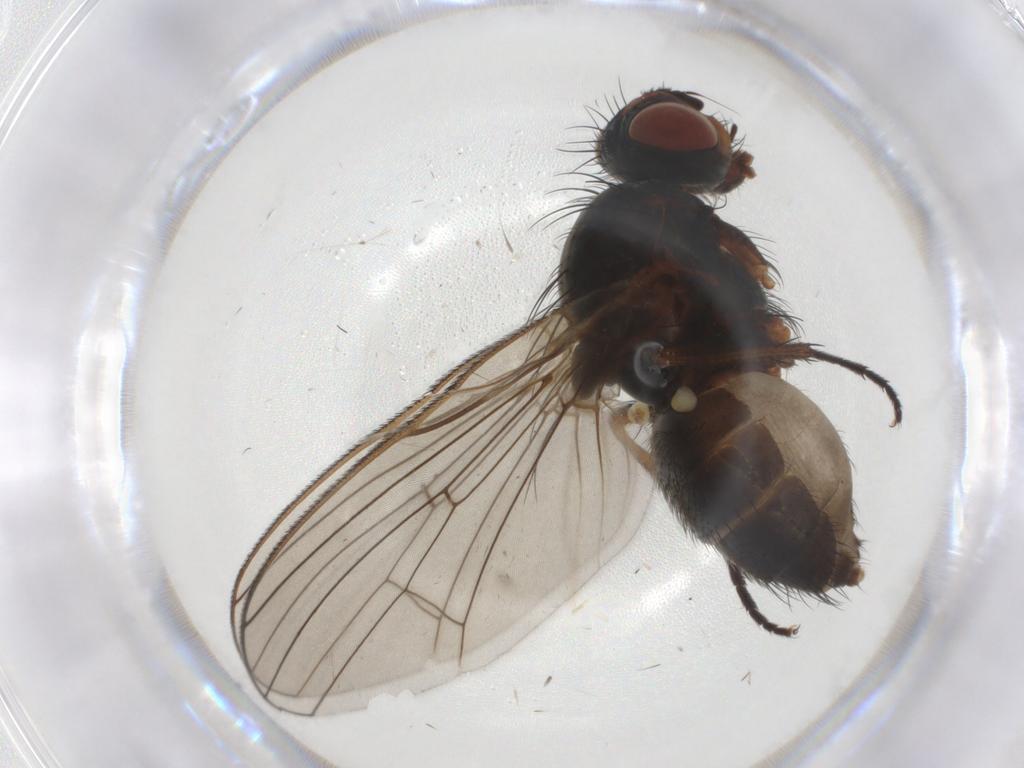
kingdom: Animalia
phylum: Arthropoda
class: Insecta
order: Diptera
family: Anthomyiidae
